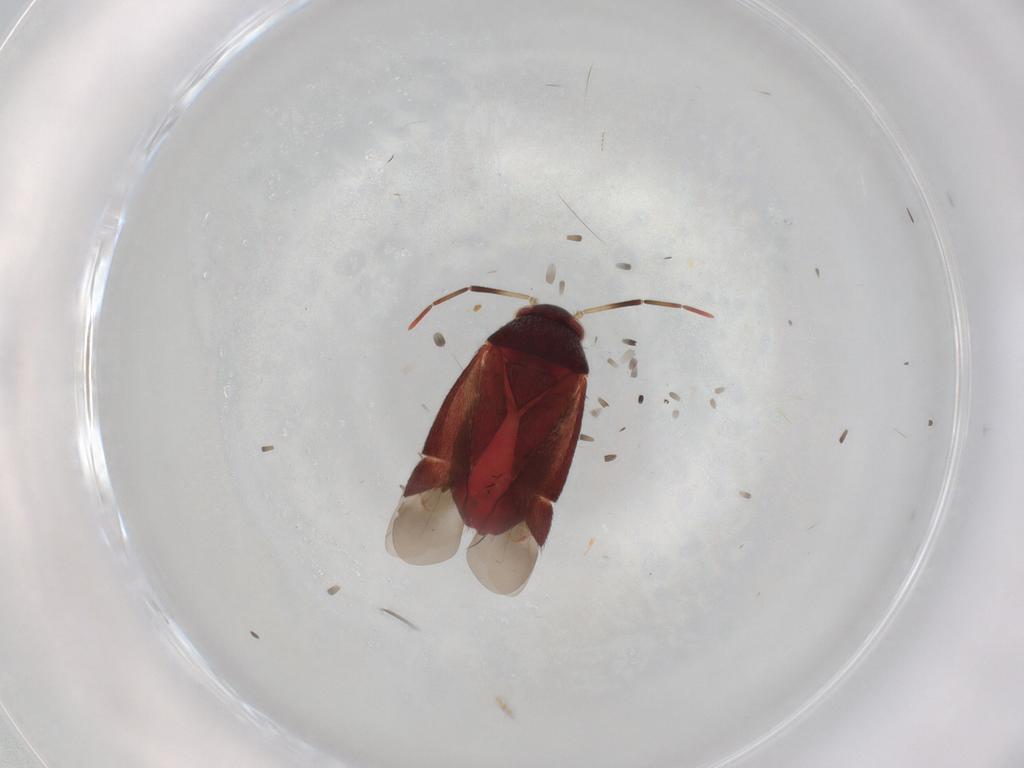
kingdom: Animalia
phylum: Arthropoda
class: Insecta
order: Hemiptera
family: Miridae
